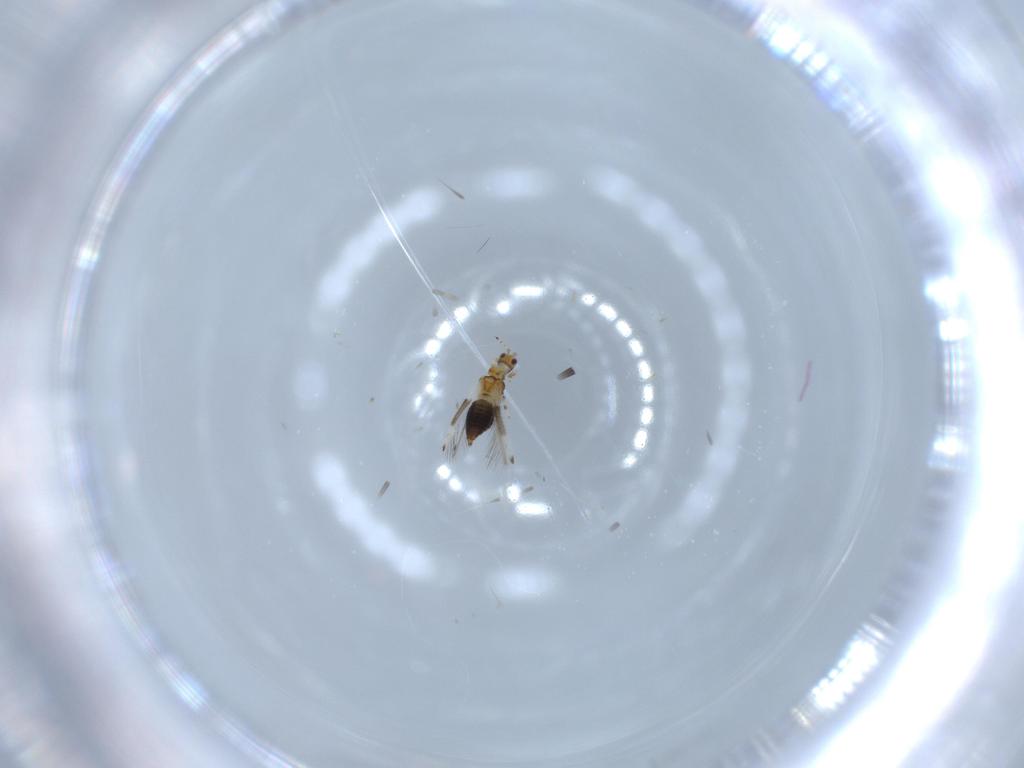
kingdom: Animalia
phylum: Arthropoda
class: Insecta
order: Thysanoptera
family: Thripidae
